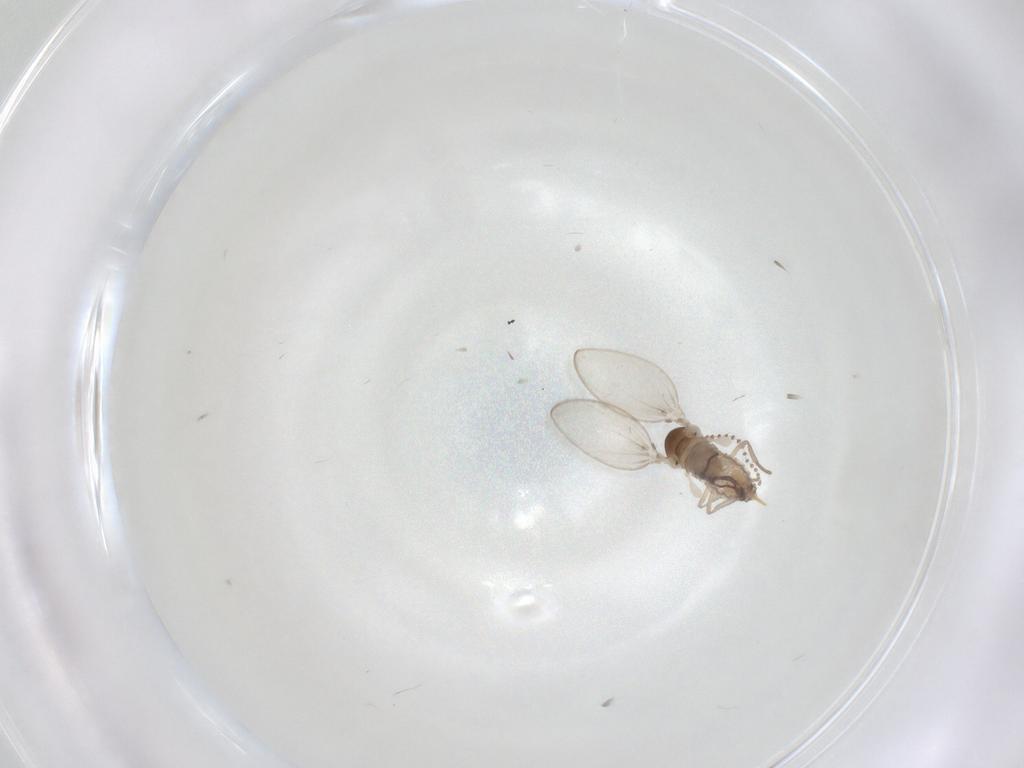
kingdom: Animalia
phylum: Arthropoda
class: Insecta
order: Diptera
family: Psychodidae
